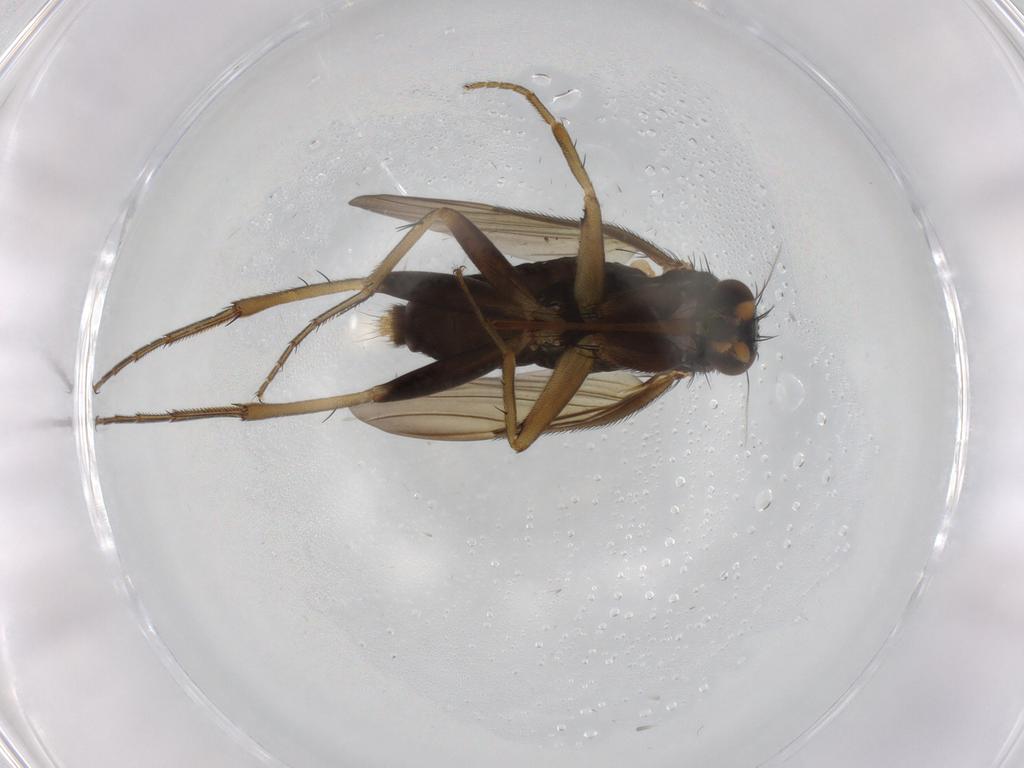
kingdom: Animalia
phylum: Arthropoda
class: Insecta
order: Diptera
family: Phoridae
